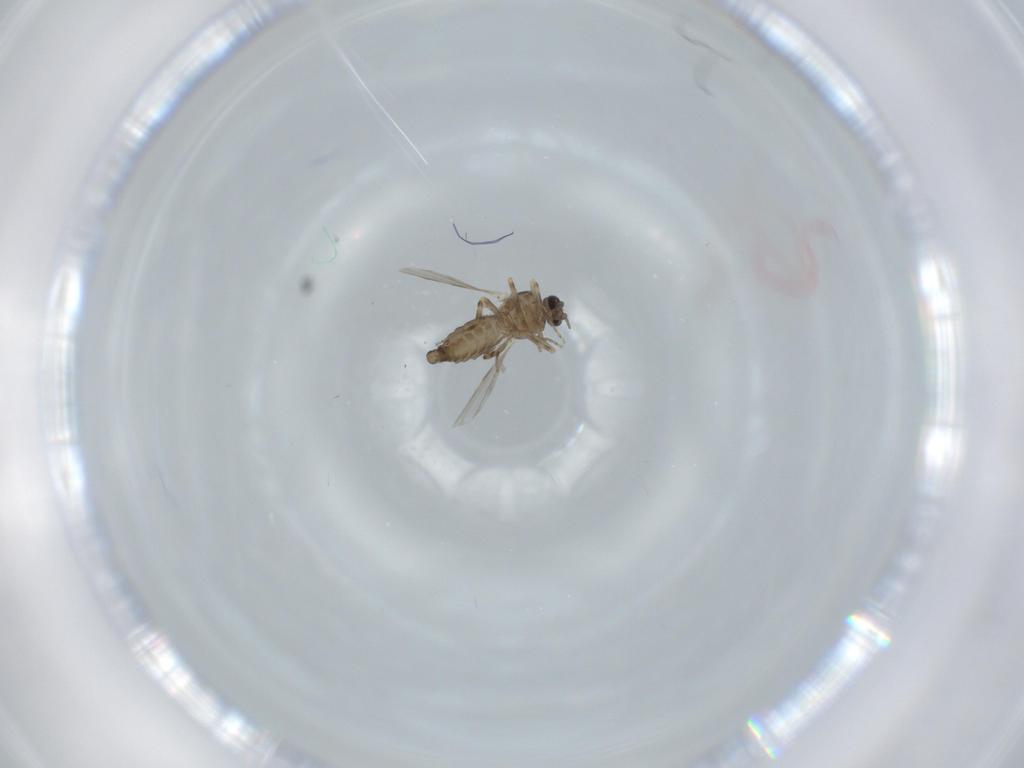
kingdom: Animalia
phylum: Arthropoda
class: Insecta
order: Diptera
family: Ceratopogonidae
